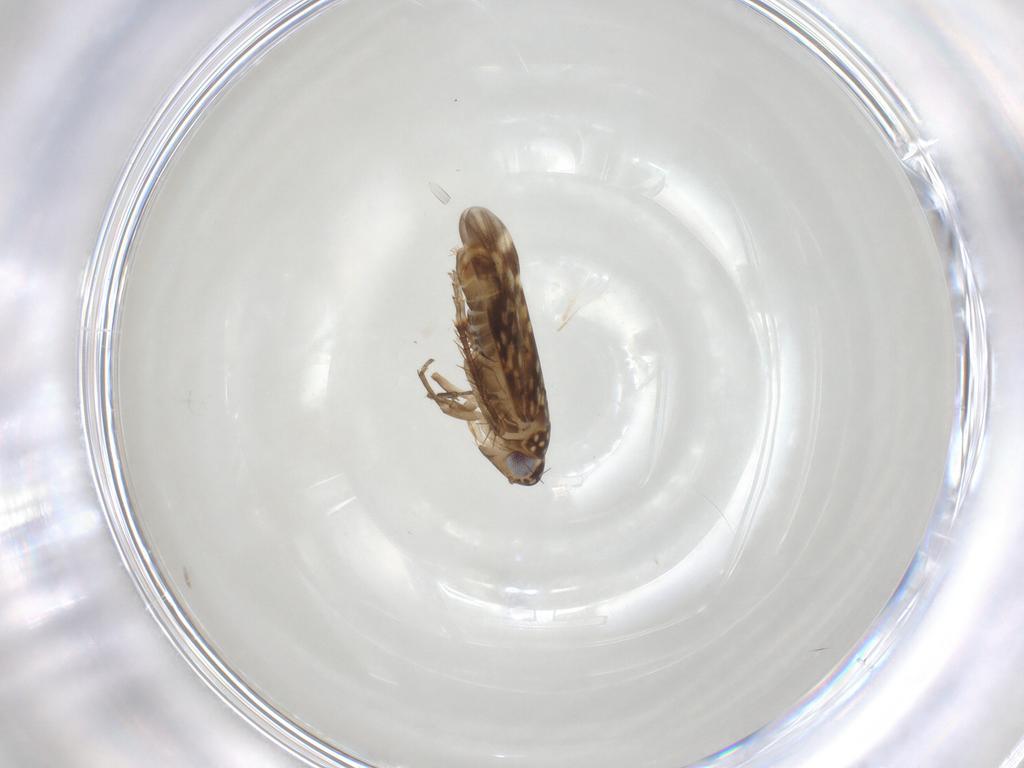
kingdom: Animalia
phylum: Arthropoda
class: Insecta
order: Hemiptera
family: Cicadellidae
